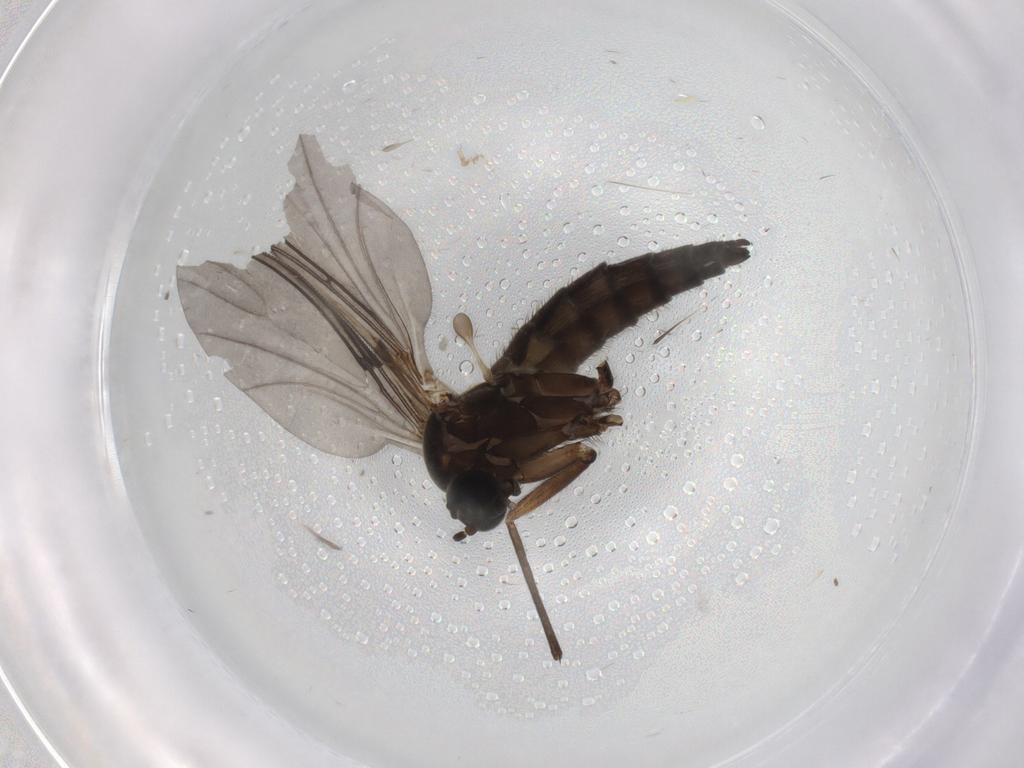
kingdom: Animalia
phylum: Arthropoda
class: Insecta
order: Diptera
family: Sciaridae
